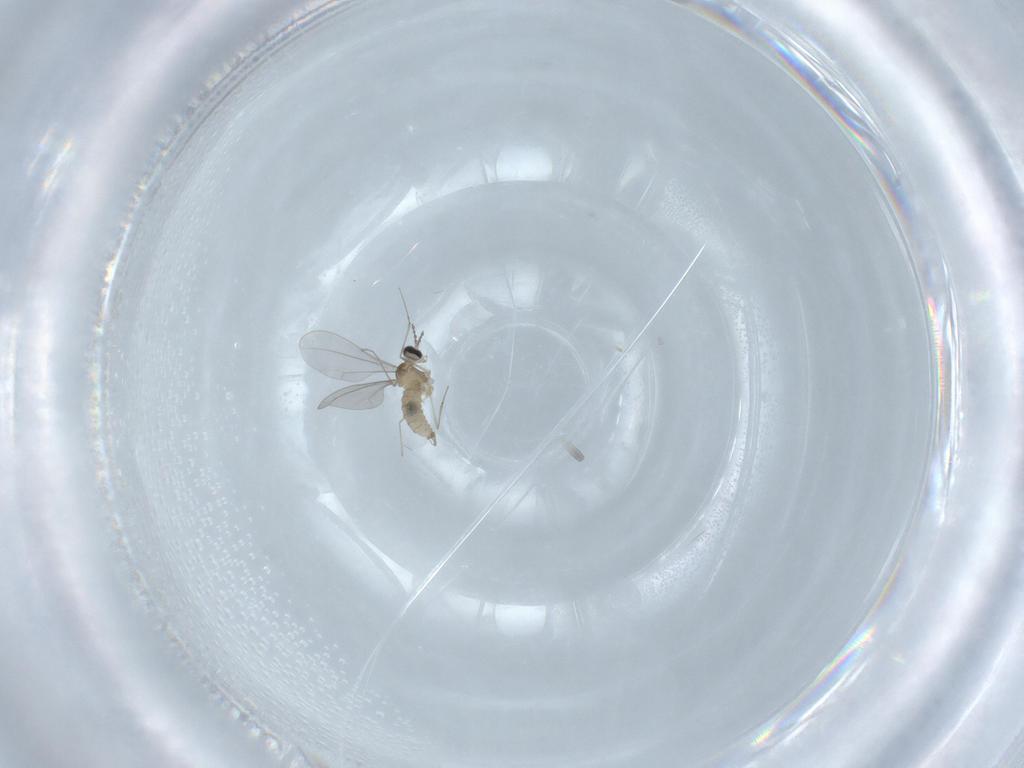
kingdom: Animalia
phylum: Arthropoda
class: Insecta
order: Diptera
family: Cecidomyiidae
